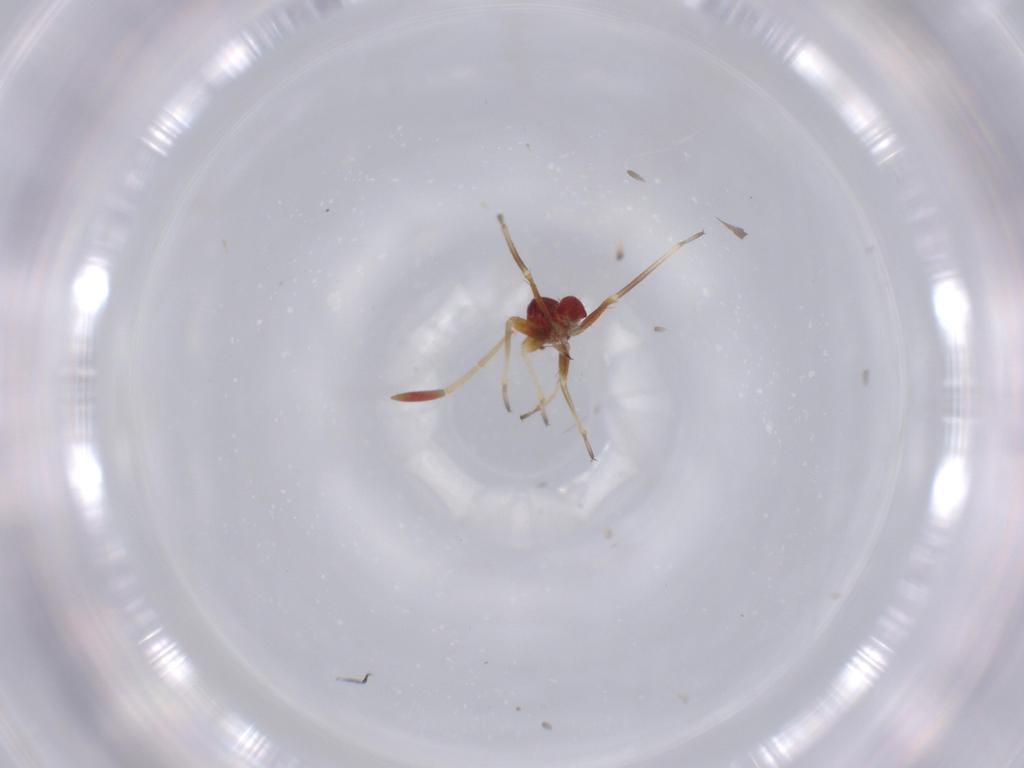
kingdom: Animalia
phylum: Arthropoda
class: Insecta
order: Hemiptera
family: Miridae
